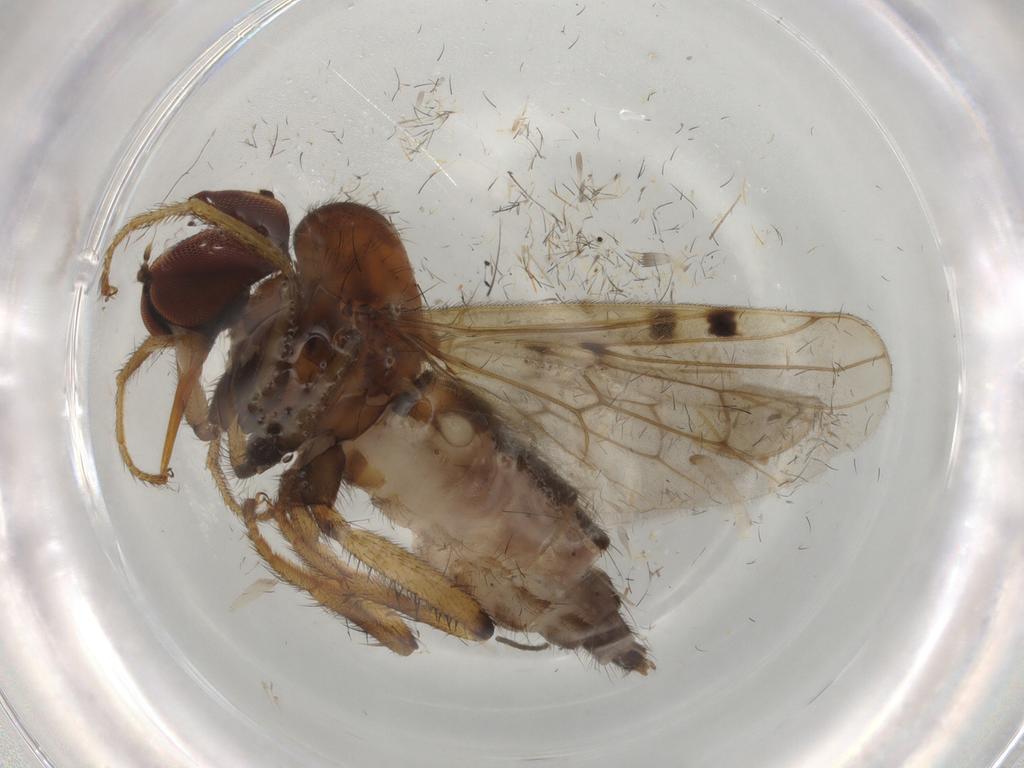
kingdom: Animalia
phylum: Arthropoda
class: Insecta
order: Diptera
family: Hybotidae
